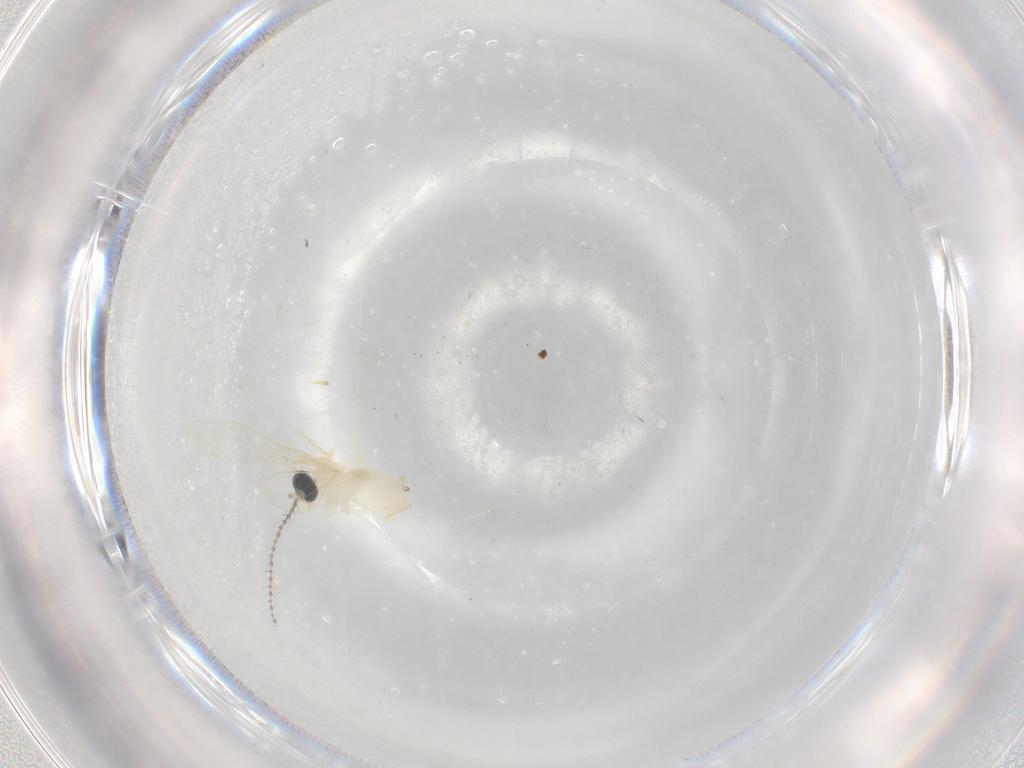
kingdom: Animalia
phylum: Arthropoda
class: Insecta
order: Diptera
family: Cecidomyiidae
